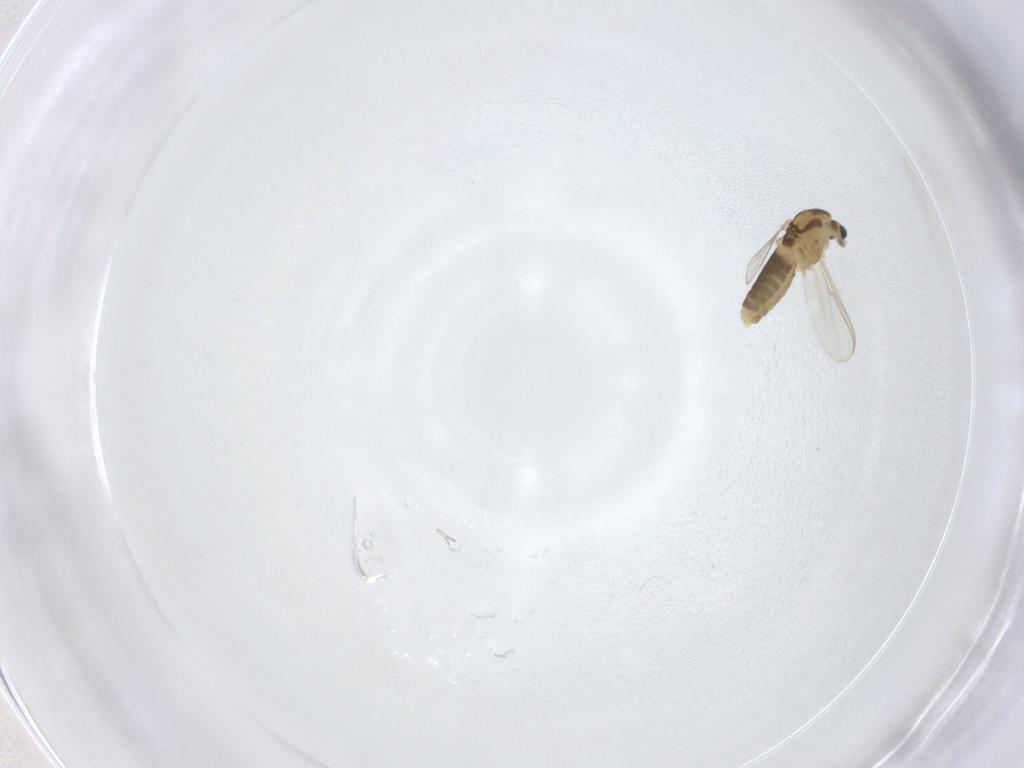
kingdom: Animalia
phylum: Arthropoda
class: Insecta
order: Diptera
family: Chironomidae
